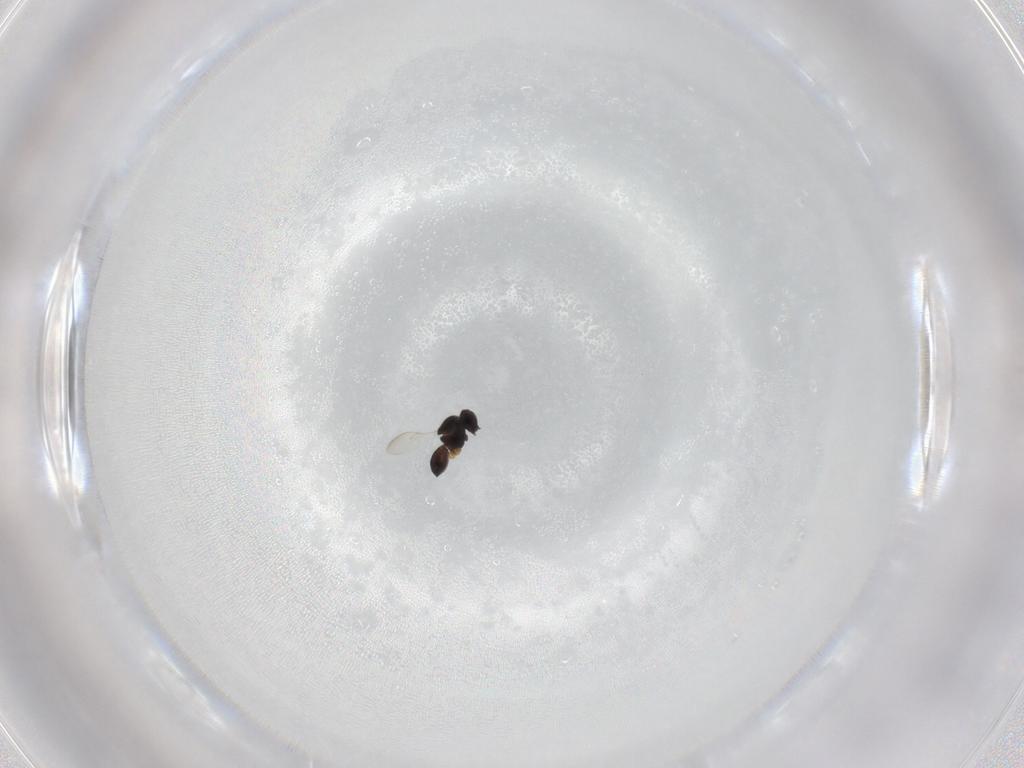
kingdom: Animalia
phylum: Arthropoda
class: Insecta
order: Hymenoptera
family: Scelionidae
